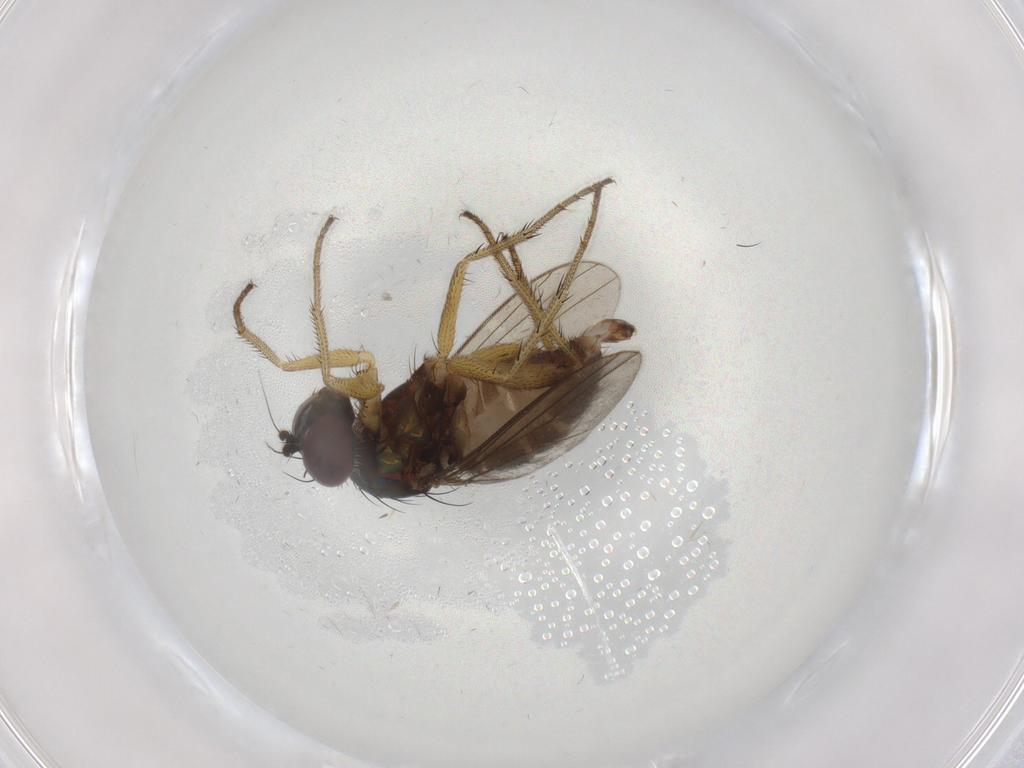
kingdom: Animalia
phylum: Arthropoda
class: Insecta
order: Diptera
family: Dolichopodidae
